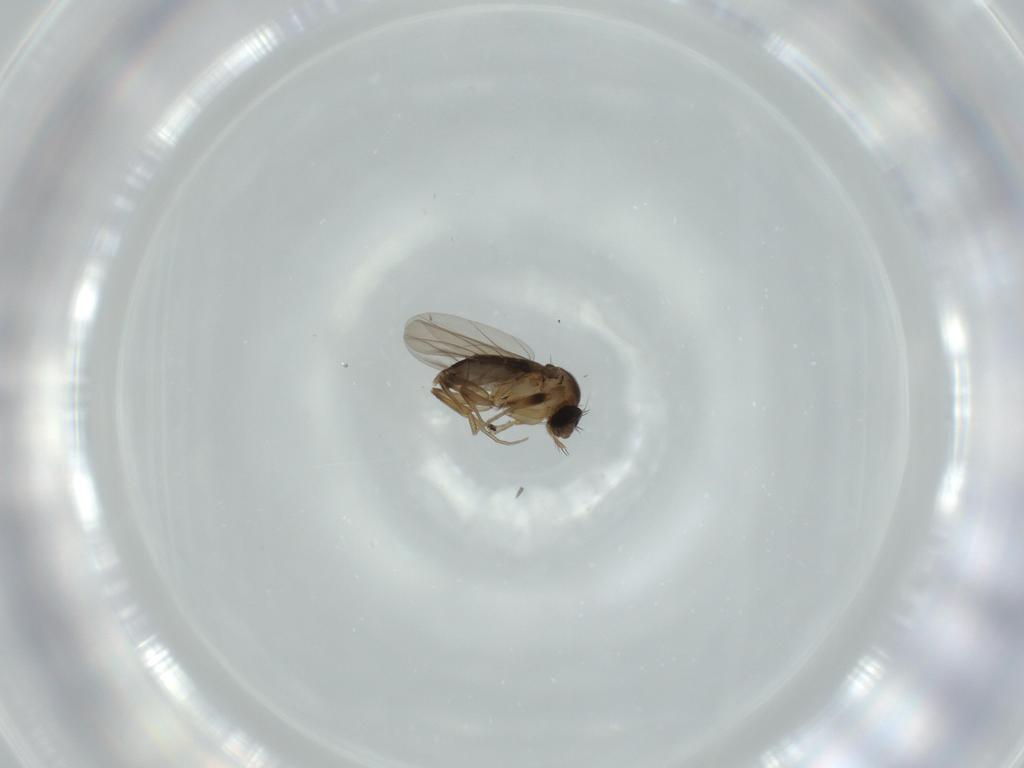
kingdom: Animalia
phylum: Arthropoda
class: Insecta
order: Diptera
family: Phoridae
